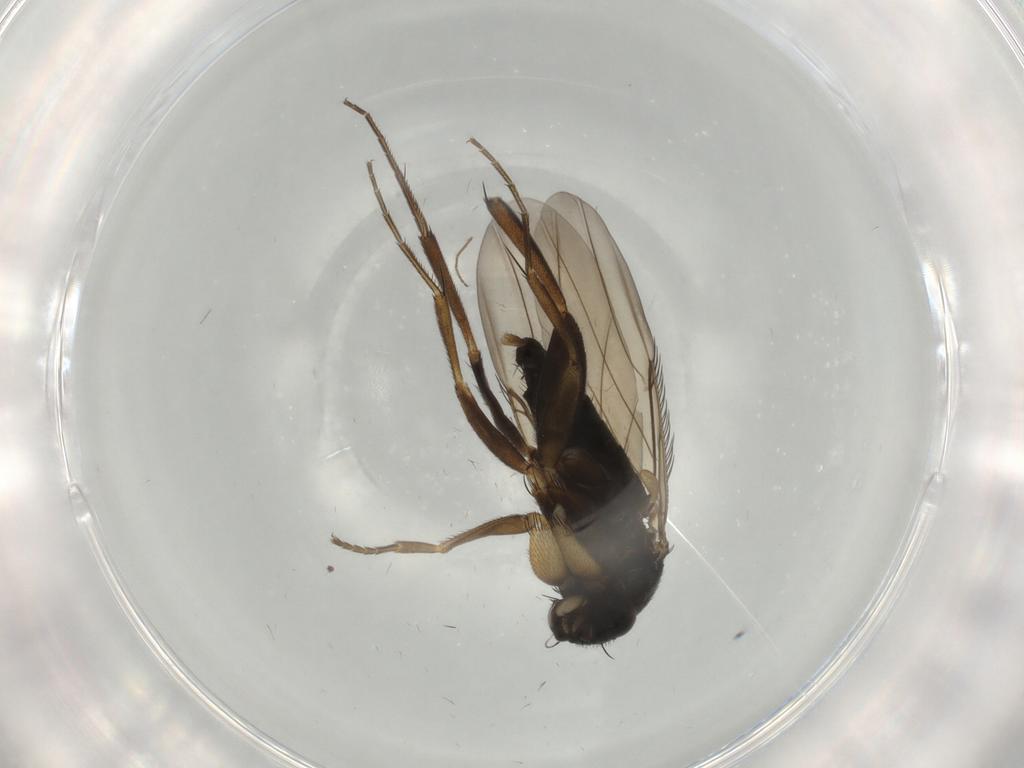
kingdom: Animalia
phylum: Arthropoda
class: Insecta
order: Diptera
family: Phoridae
